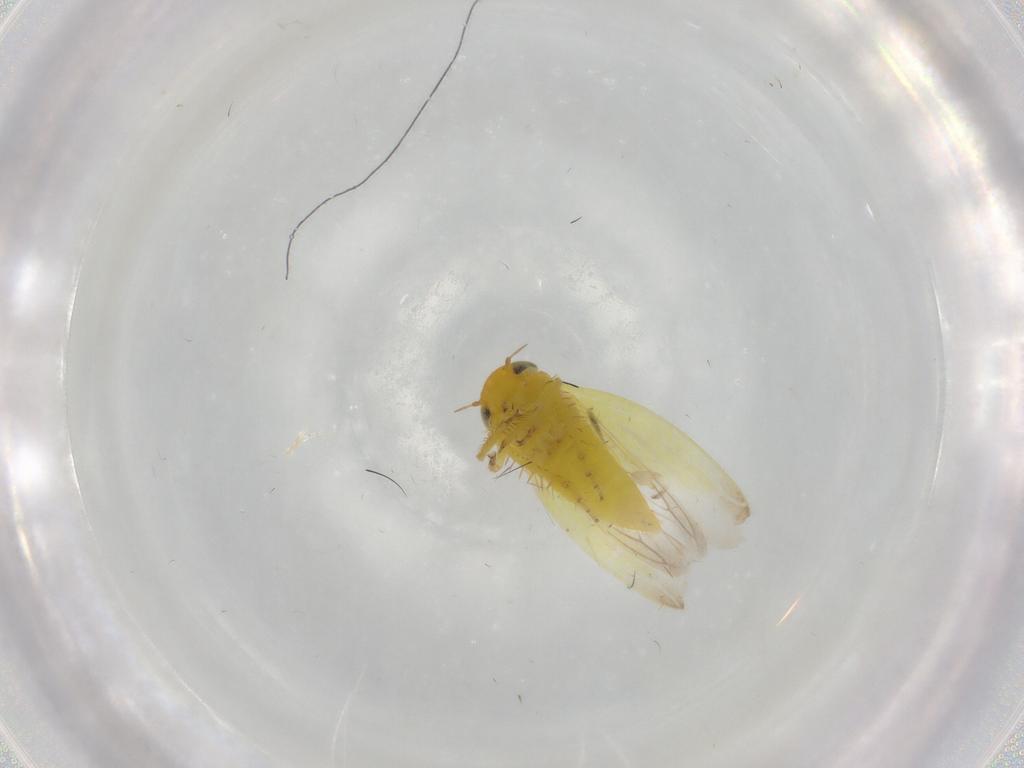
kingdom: Animalia
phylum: Arthropoda
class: Insecta
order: Hemiptera
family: Cicadellidae
